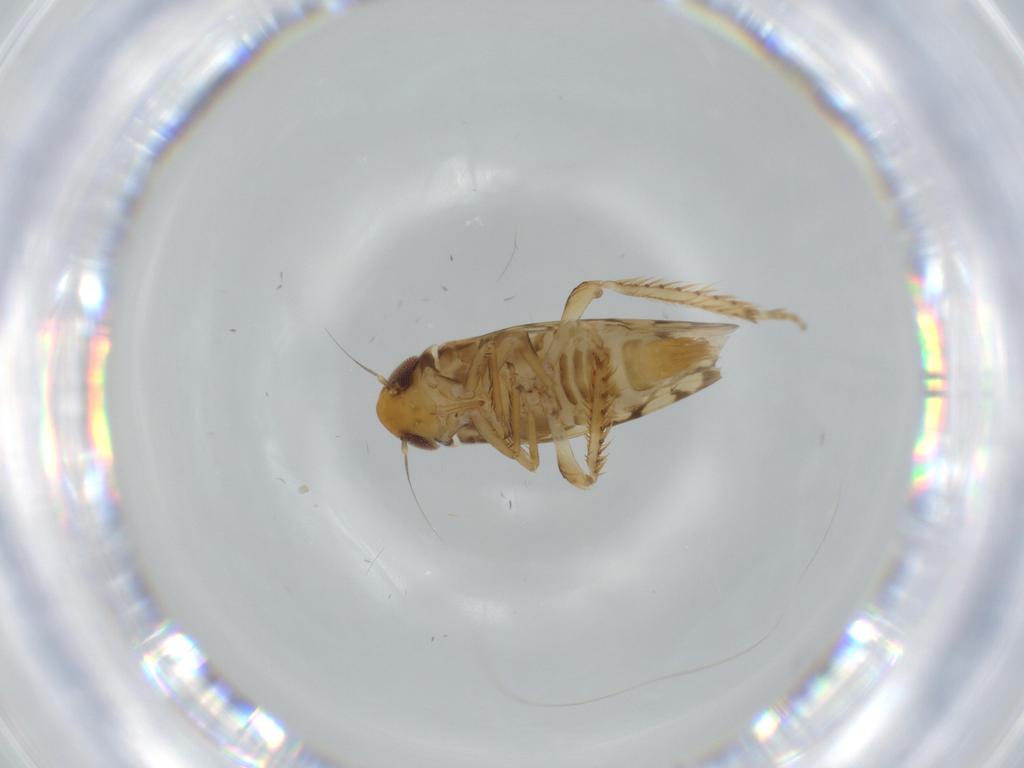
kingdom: Animalia
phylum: Arthropoda
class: Insecta
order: Hemiptera
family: Cicadellidae
